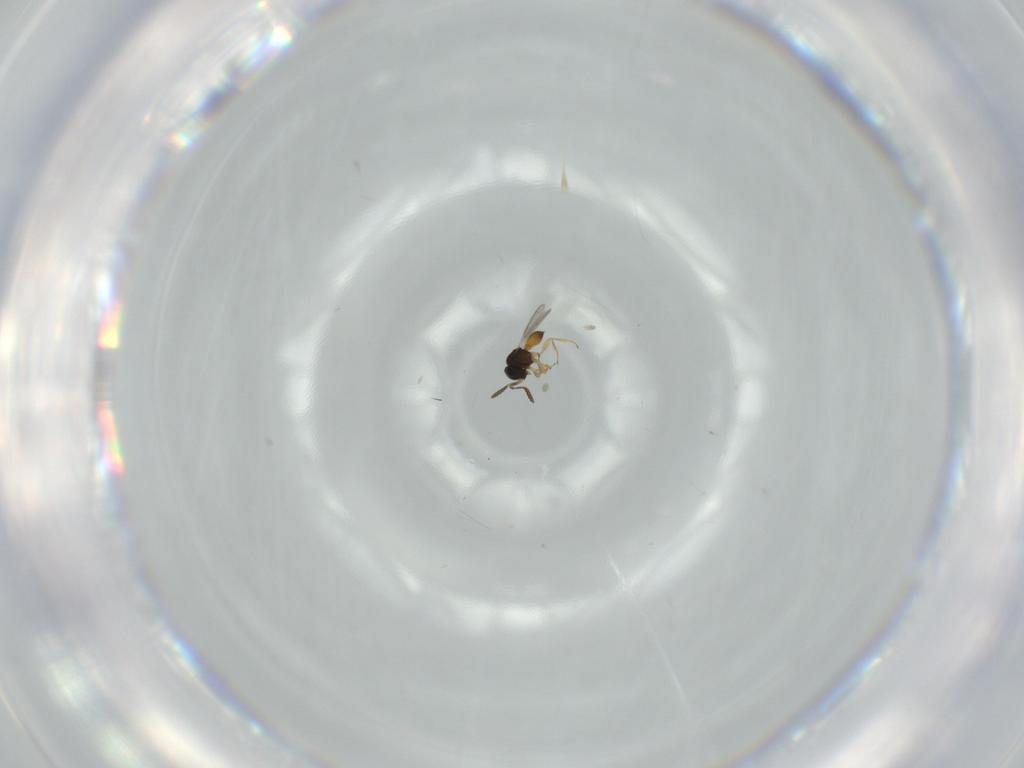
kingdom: Animalia
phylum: Arthropoda
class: Insecta
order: Hymenoptera
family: Scelionidae
